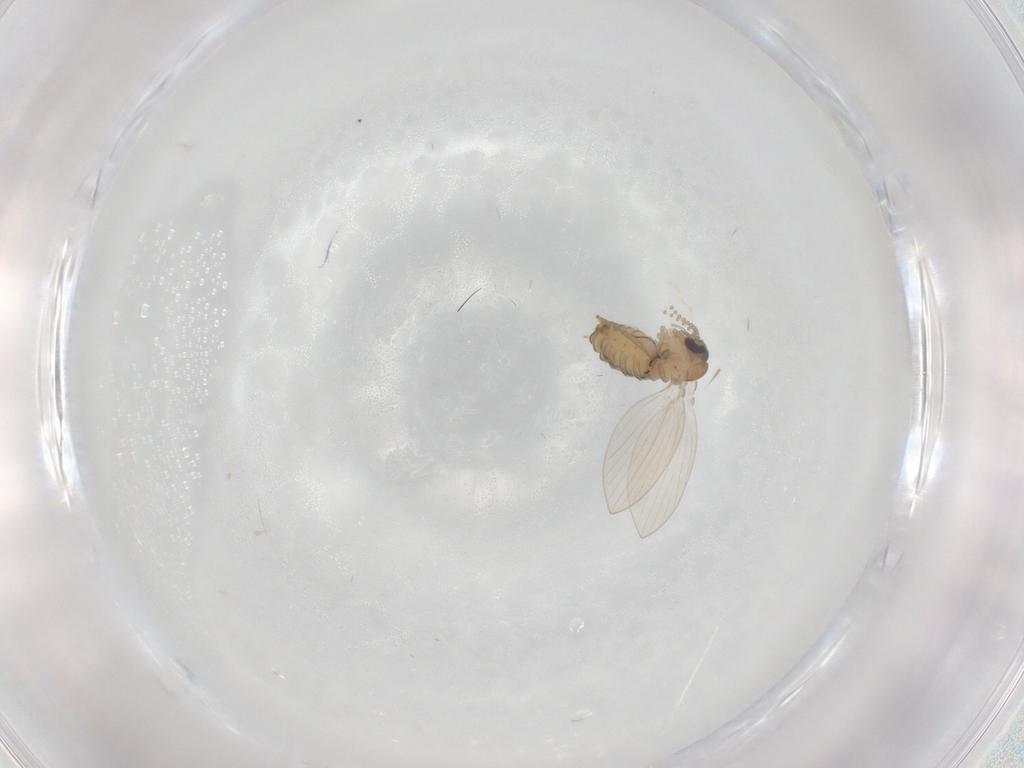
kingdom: Animalia
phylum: Arthropoda
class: Insecta
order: Diptera
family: Psychodidae
